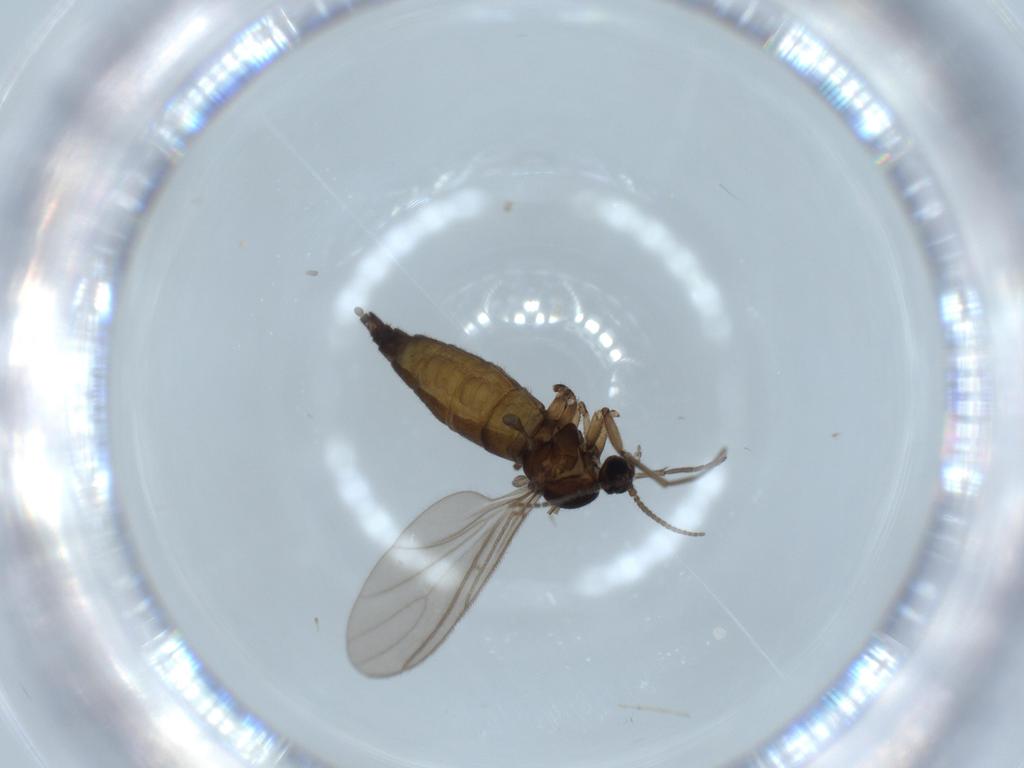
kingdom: Animalia
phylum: Arthropoda
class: Insecta
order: Diptera
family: Sciaridae
